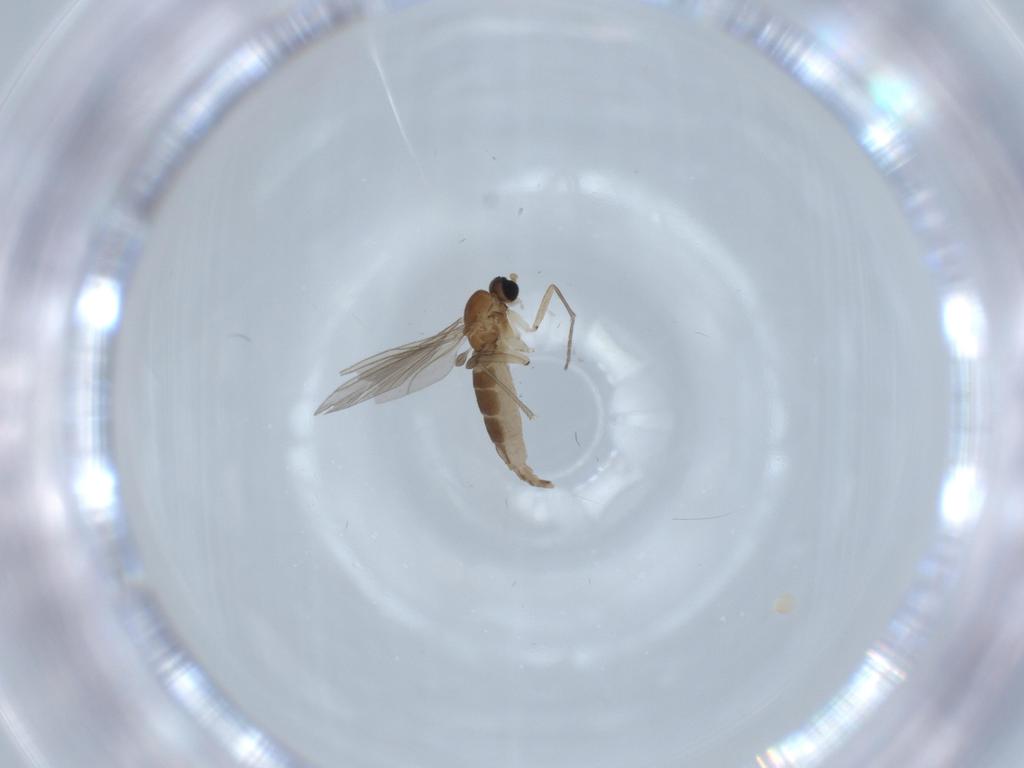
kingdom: Animalia
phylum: Arthropoda
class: Insecta
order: Diptera
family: Sciaridae
